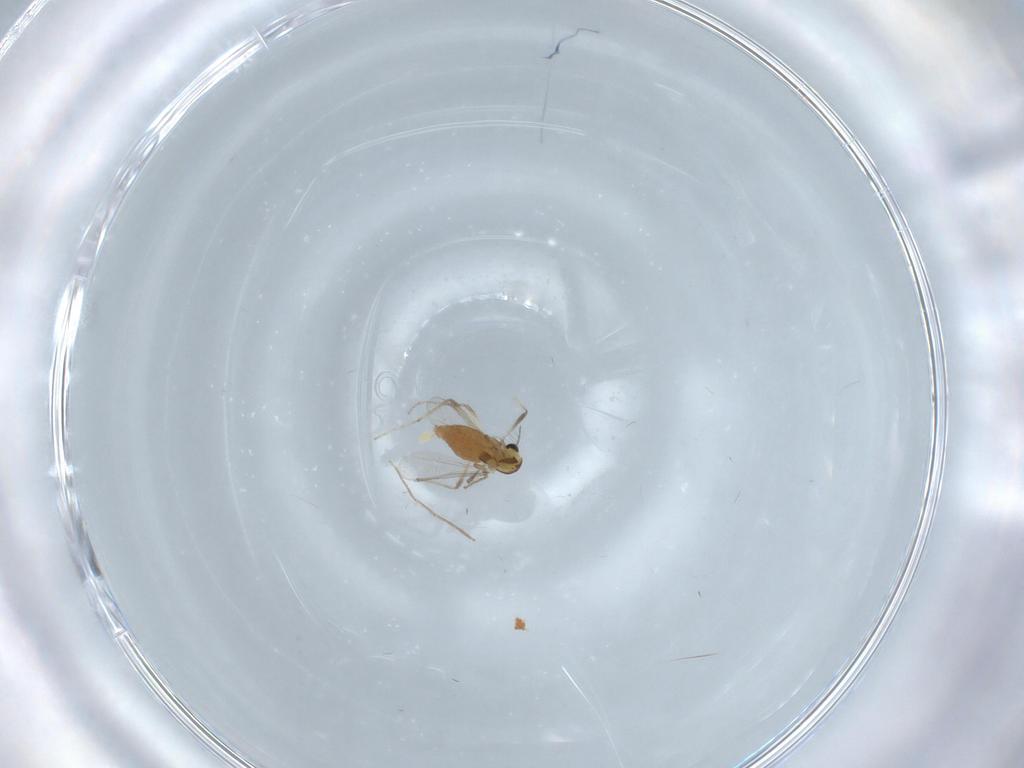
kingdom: Animalia
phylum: Arthropoda
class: Insecta
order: Diptera
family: Chironomidae
